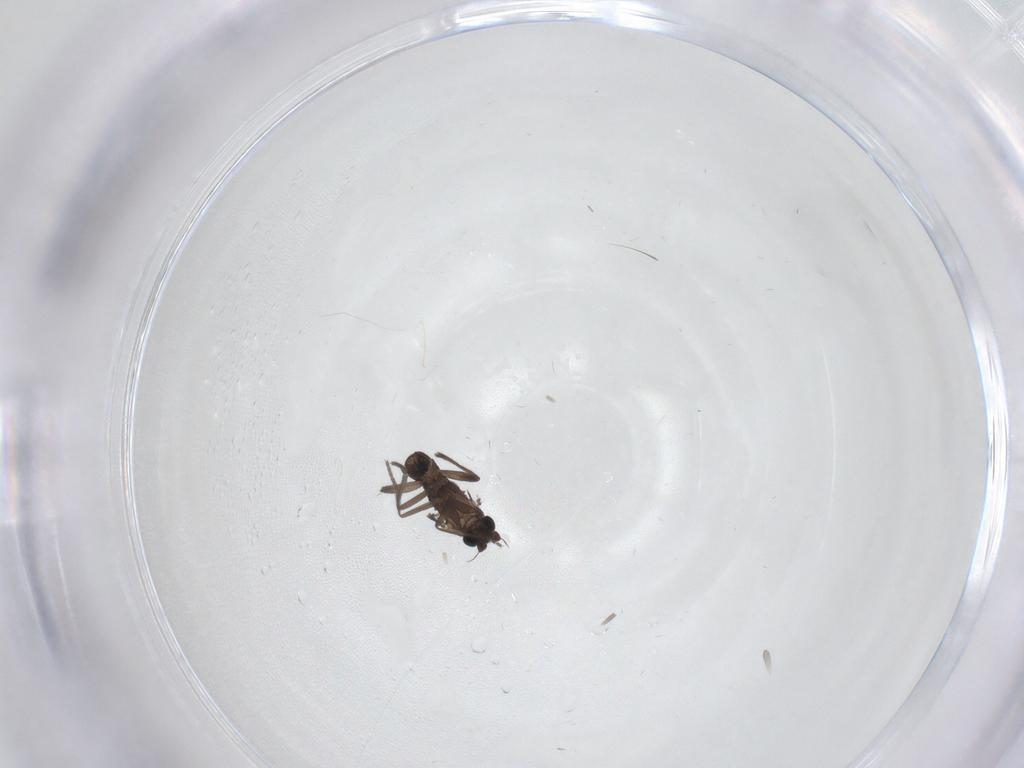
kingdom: Animalia
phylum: Arthropoda
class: Insecta
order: Diptera
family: Phoridae
